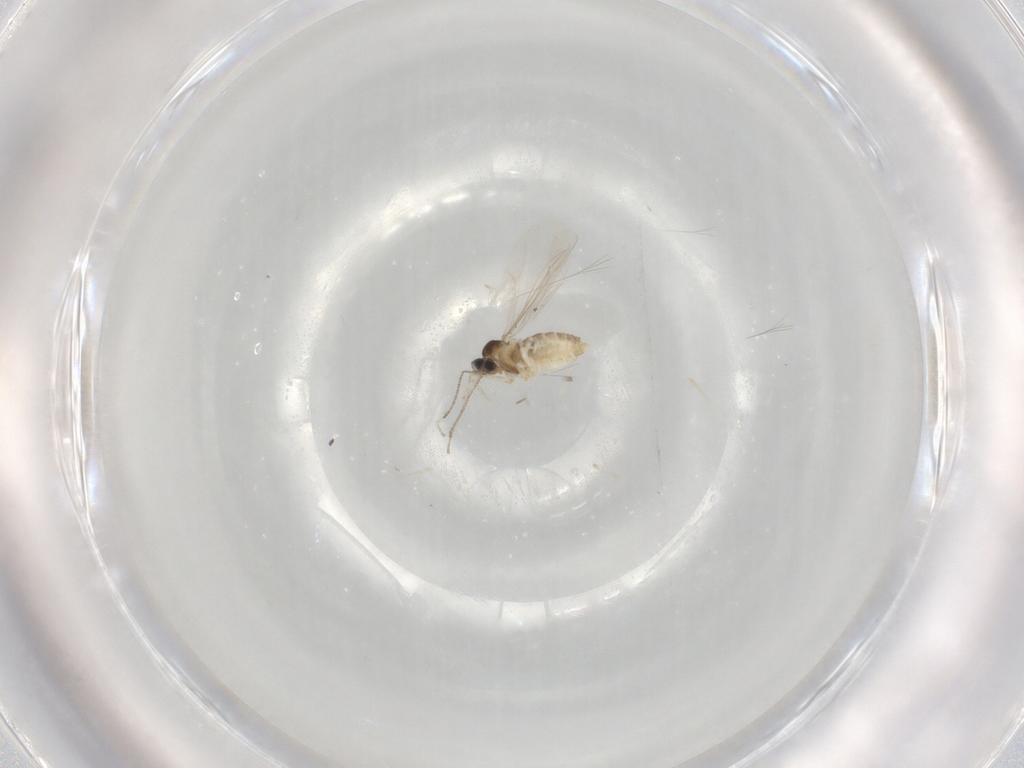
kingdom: Animalia
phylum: Arthropoda
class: Insecta
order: Diptera
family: Cecidomyiidae
